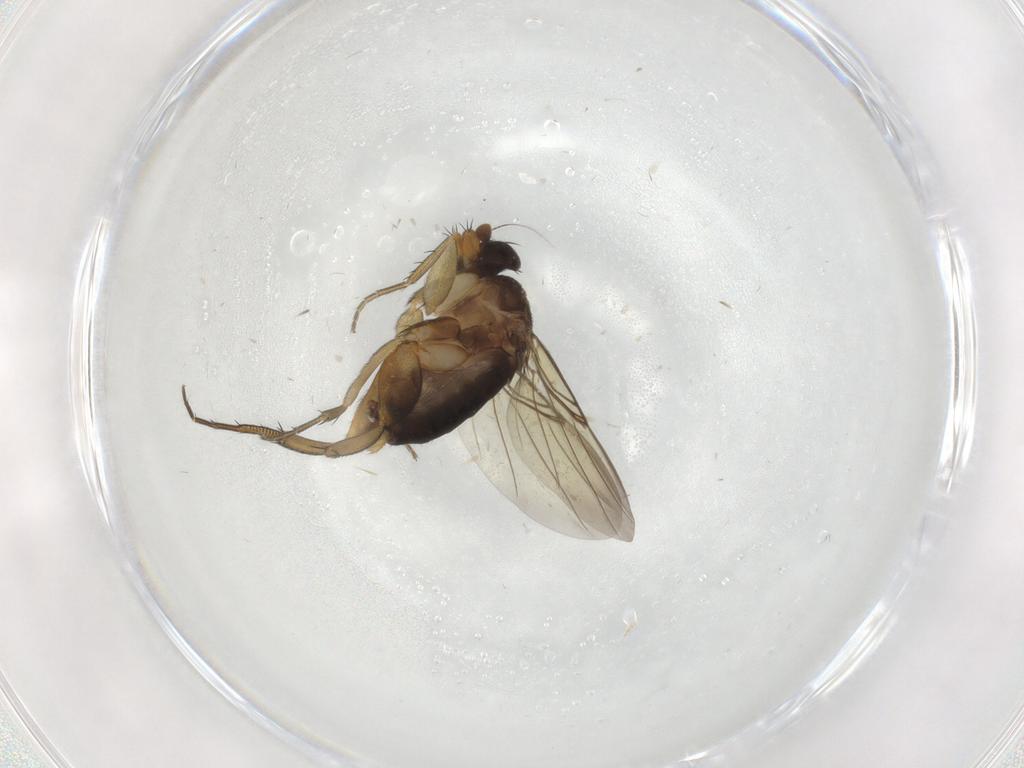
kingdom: Animalia
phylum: Arthropoda
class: Insecta
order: Diptera
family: Phoridae
